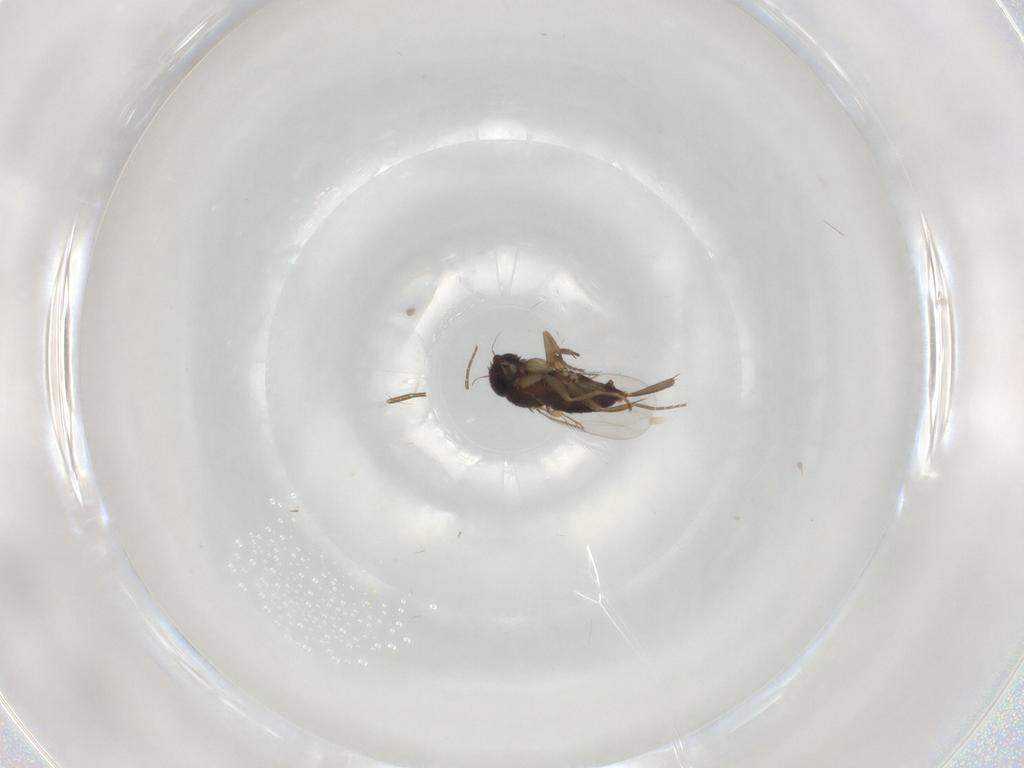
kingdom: Animalia
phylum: Arthropoda
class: Insecta
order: Diptera
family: Phoridae
